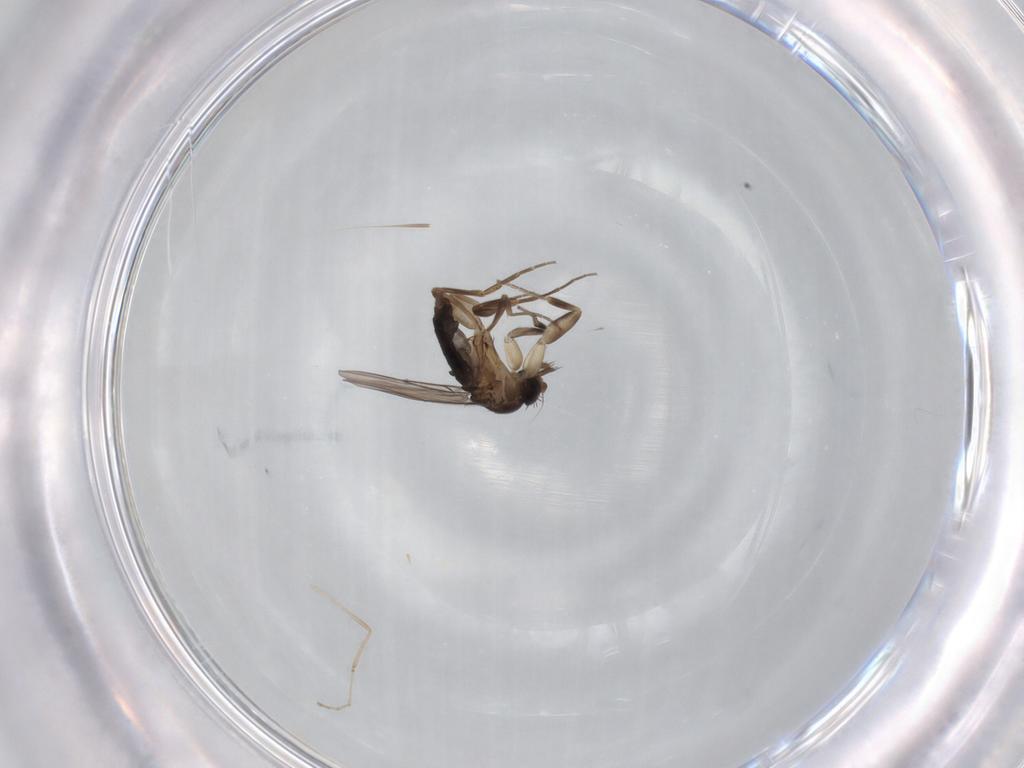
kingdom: Animalia
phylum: Arthropoda
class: Insecta
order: Diptera
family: Phoridae
